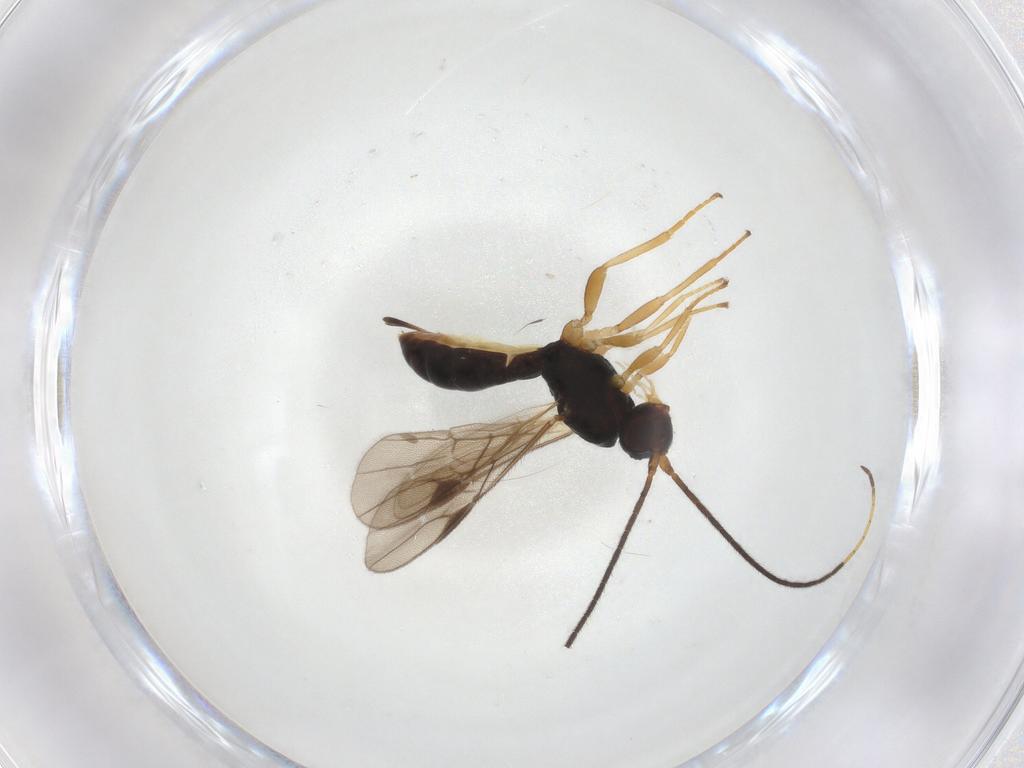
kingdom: Animalia
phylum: Arthropoda
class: Insecta
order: Hymenoptera
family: Braconidae
